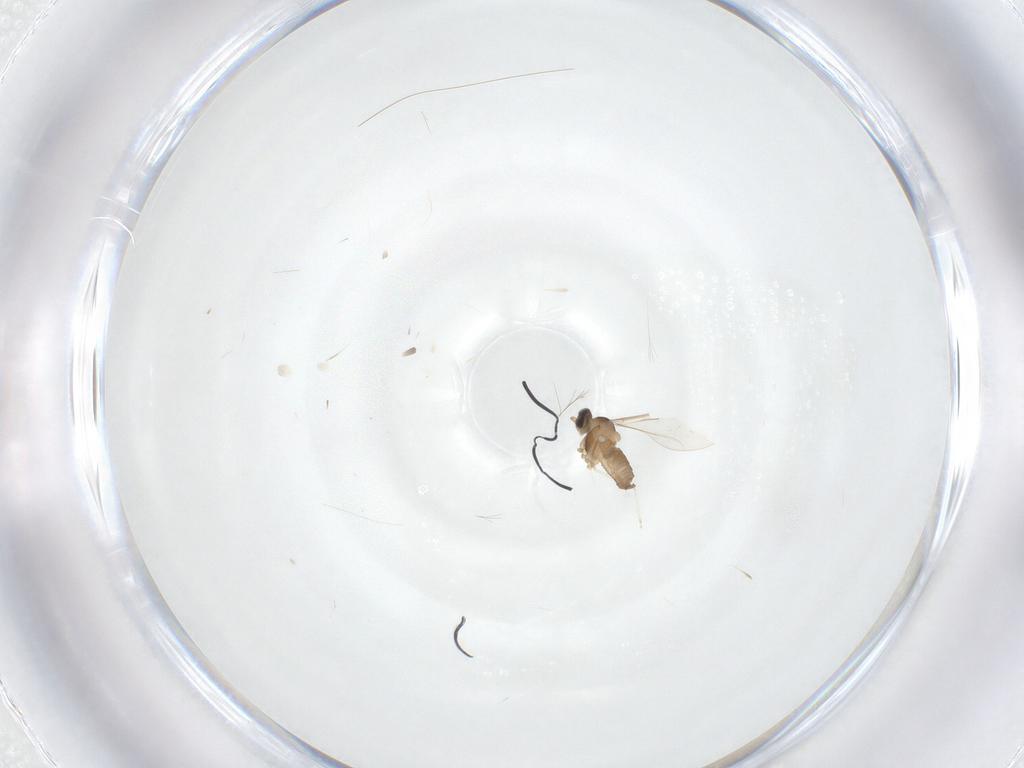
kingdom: Animalia
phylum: Arthropoda
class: Insecta
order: Diptera
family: Cecidomyiidae
